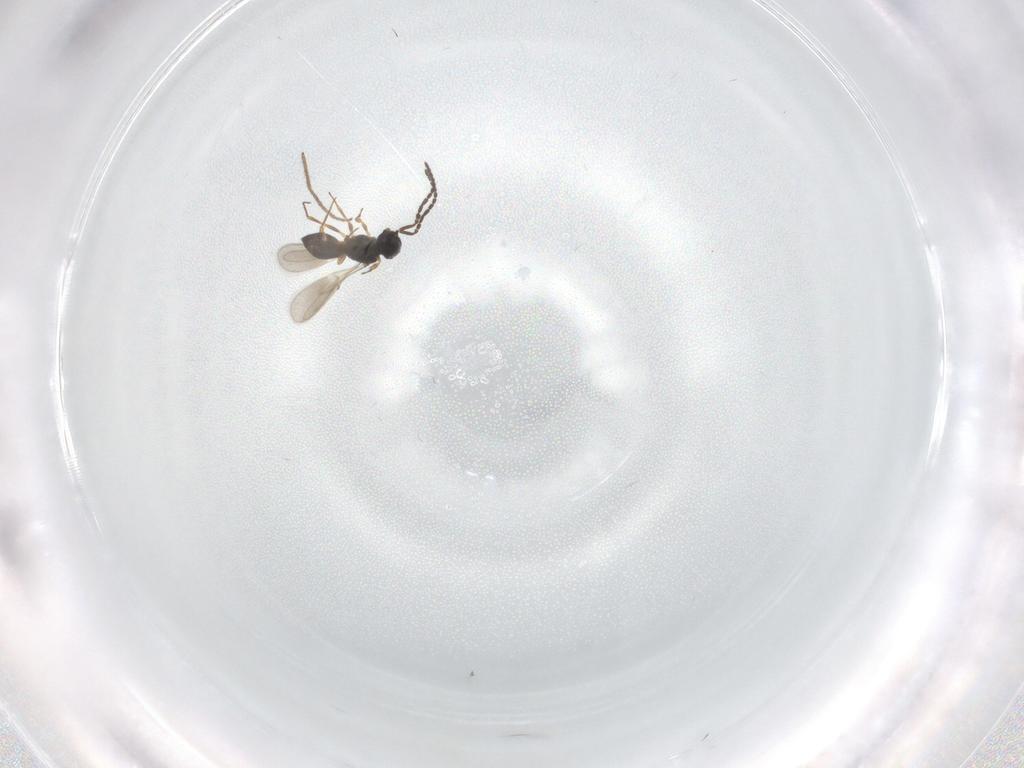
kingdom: Animalia
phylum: Arthropoda
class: Insecta
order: Hymenoptera
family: Scelionidae
